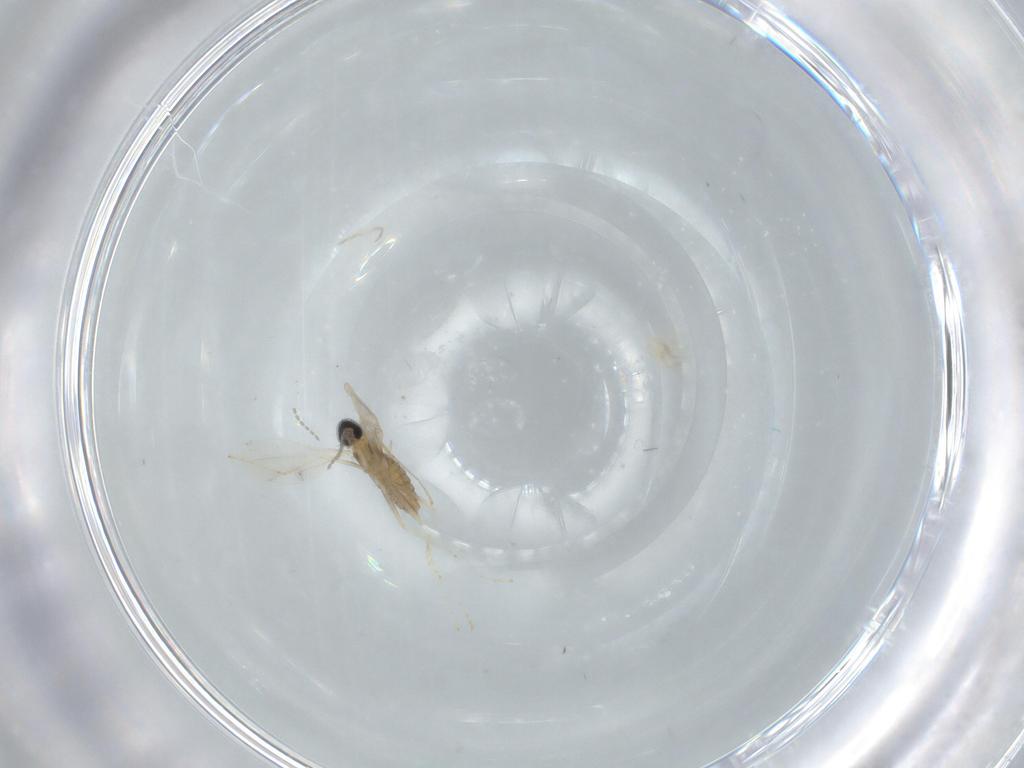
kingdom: Animalia
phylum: Arthropoda
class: Insecta
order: Diptera
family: Cecidomyiidae
